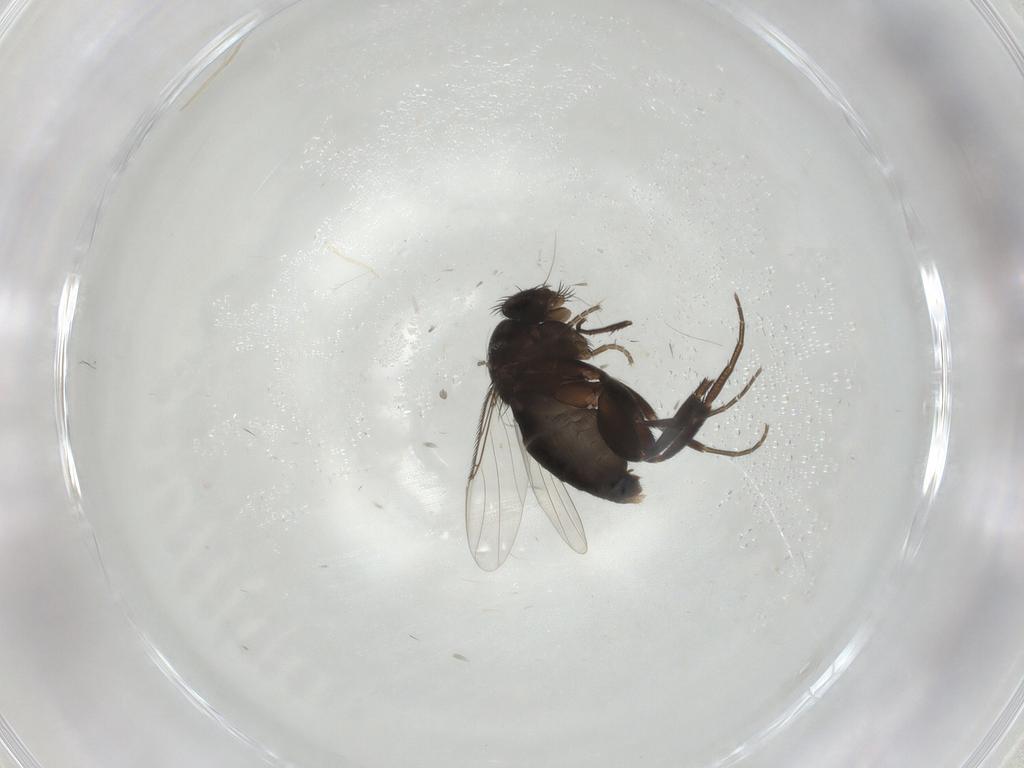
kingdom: Animalia
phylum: Arthropoda
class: Insecta
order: Diptera
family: Phoridae
